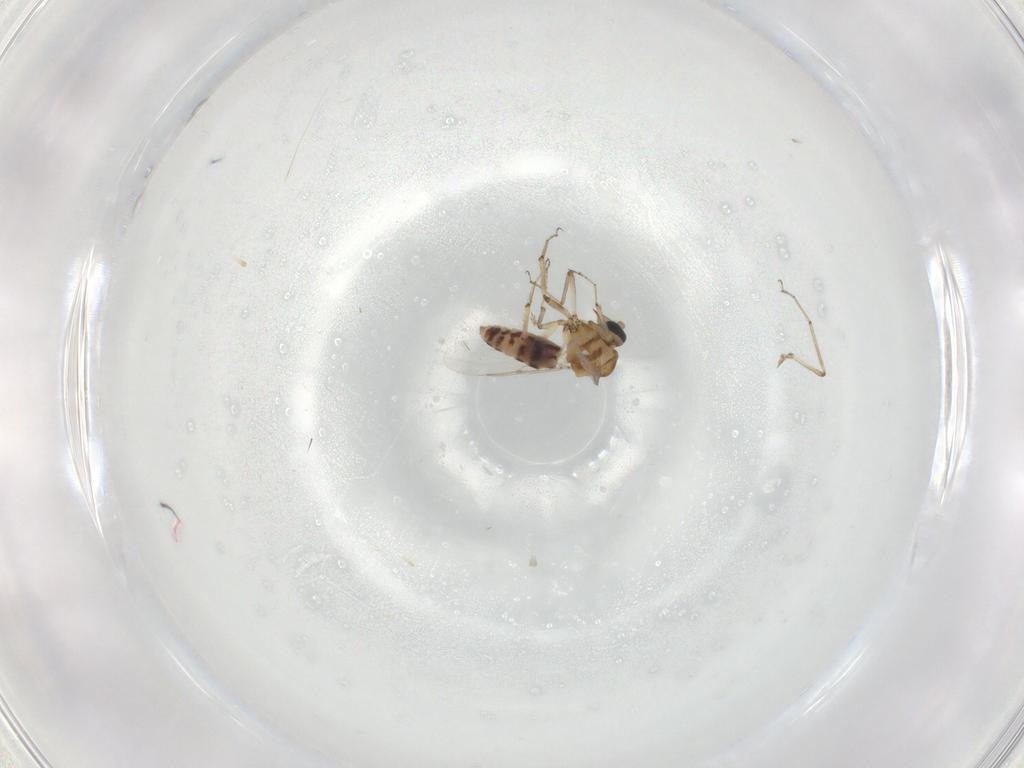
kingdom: Animalia
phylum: Arthropoda
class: Insecta
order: Diptera
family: Ceratopogonidae
